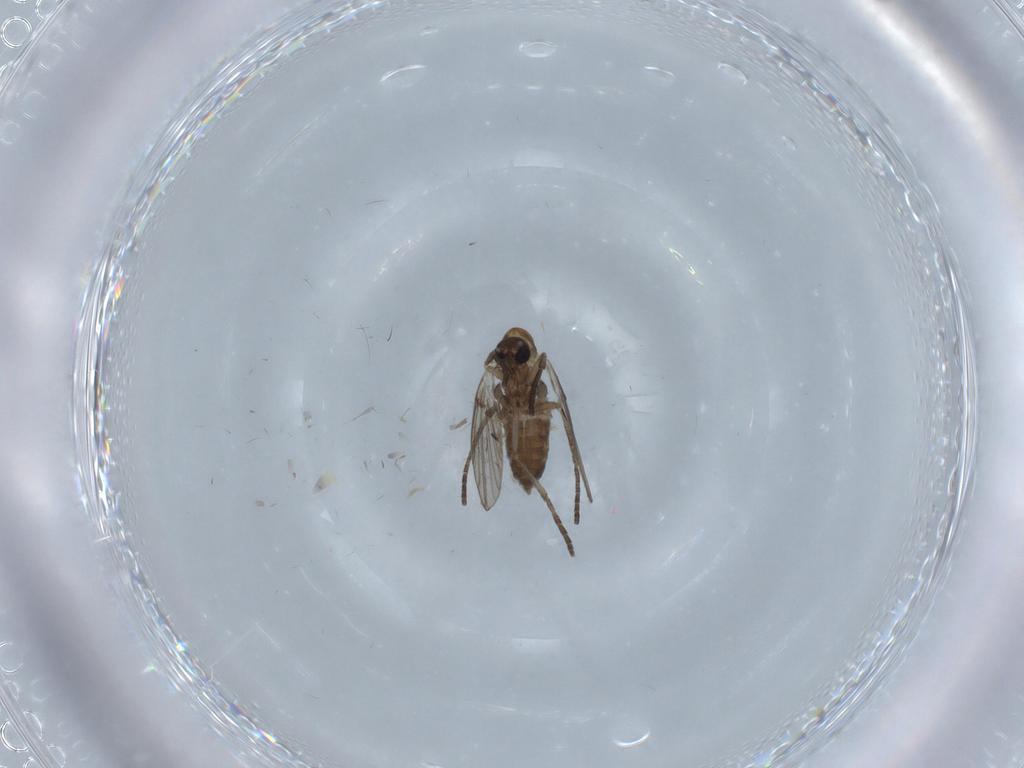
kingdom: Animalia
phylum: Arthropoda
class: Insecta
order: Diptera
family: Psychodidae
